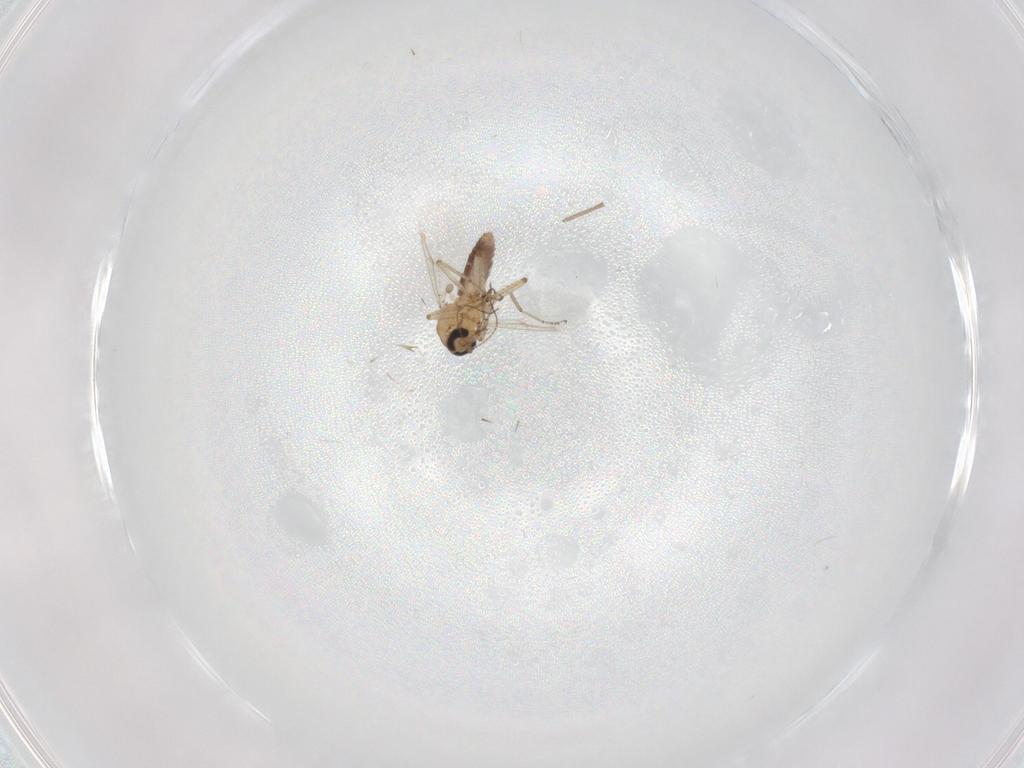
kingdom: Animalia
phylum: Arthropoda
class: Insecta
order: Diptera
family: Ceratopogonidae
